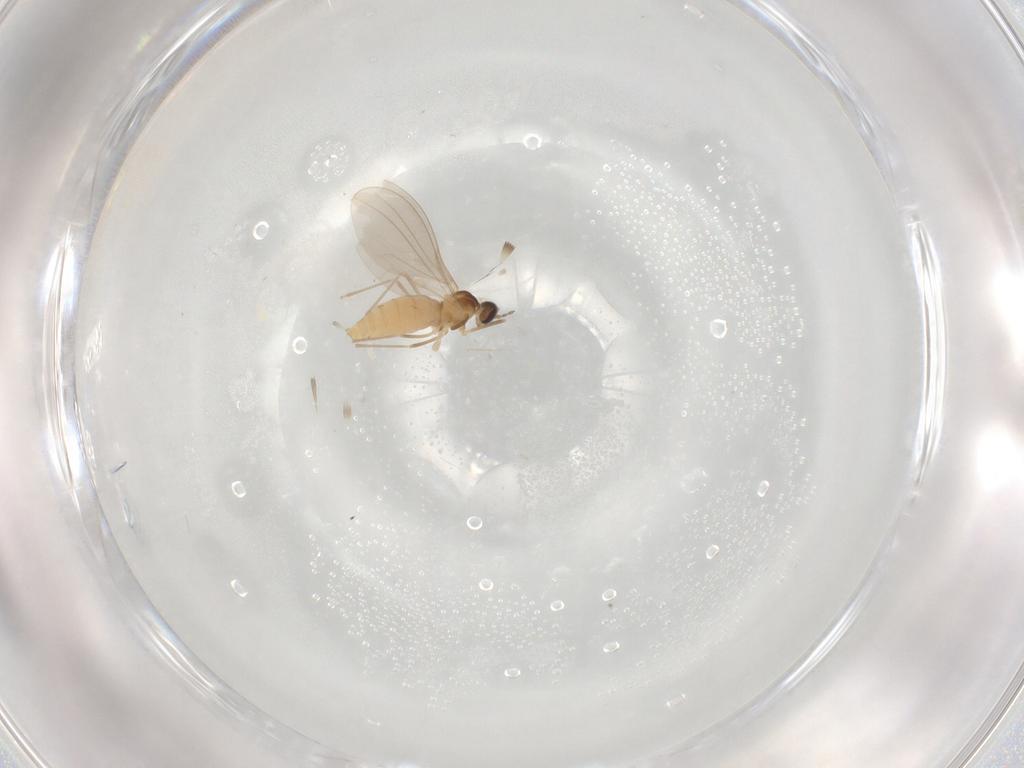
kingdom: Animalia
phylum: Arthropoda
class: Insecta
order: Diptera
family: Cecidomyiidae
